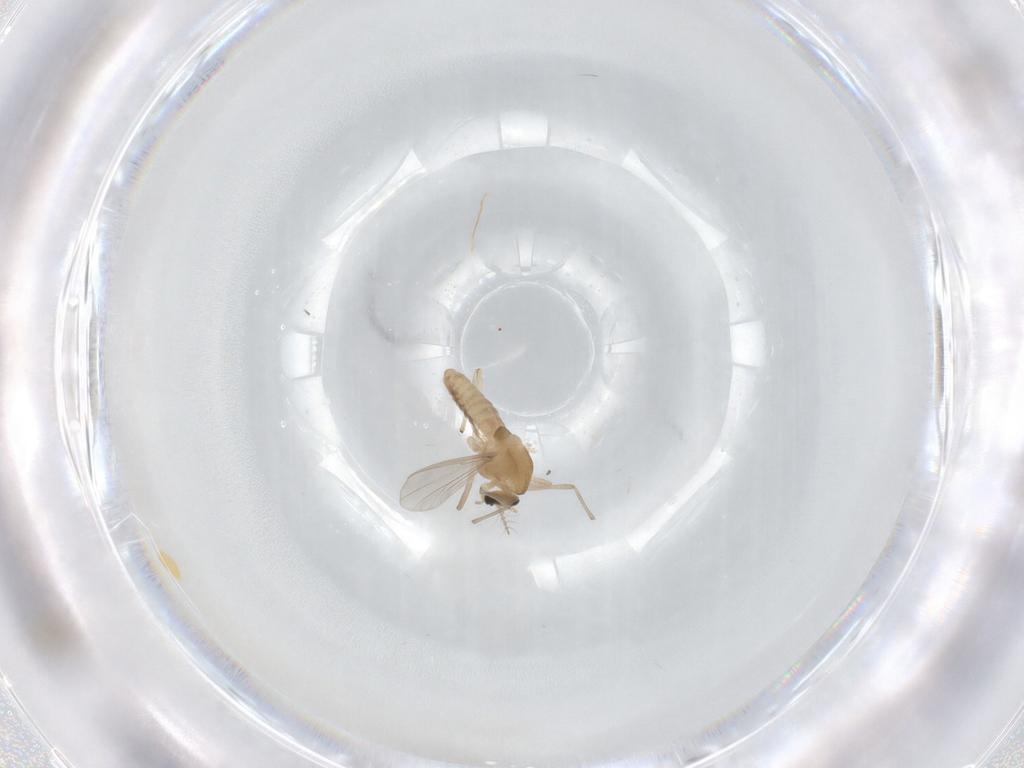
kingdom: Animalia
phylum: Arthropoda
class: Insecta
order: Diptera
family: Chironomidae
